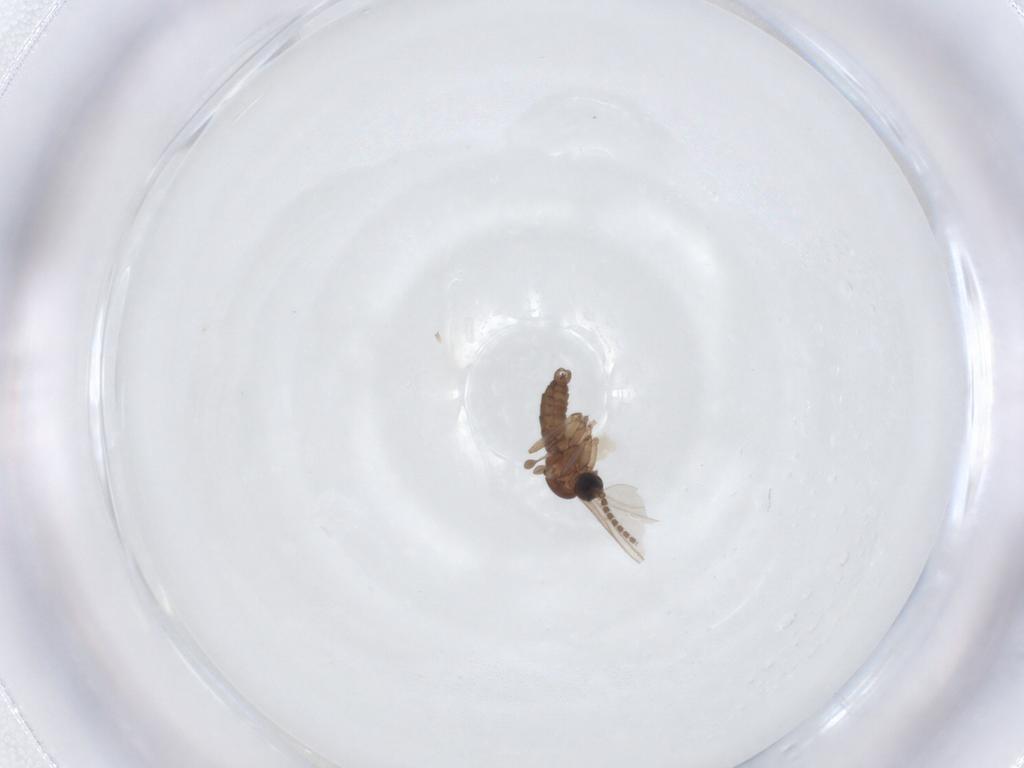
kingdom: Animalia
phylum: Arthropoda
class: Insecta
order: Diptera
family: Sciaridae
